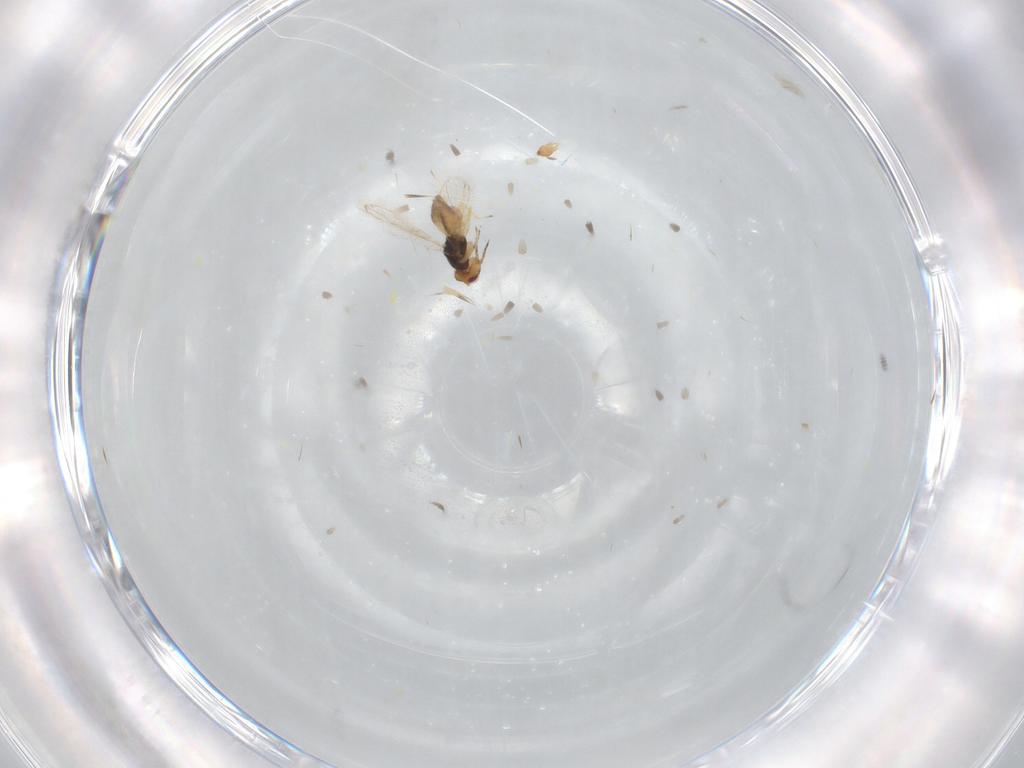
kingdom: Animalia
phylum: Arthropoda
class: Insecta
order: Hymenoptera
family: Eulophidae
